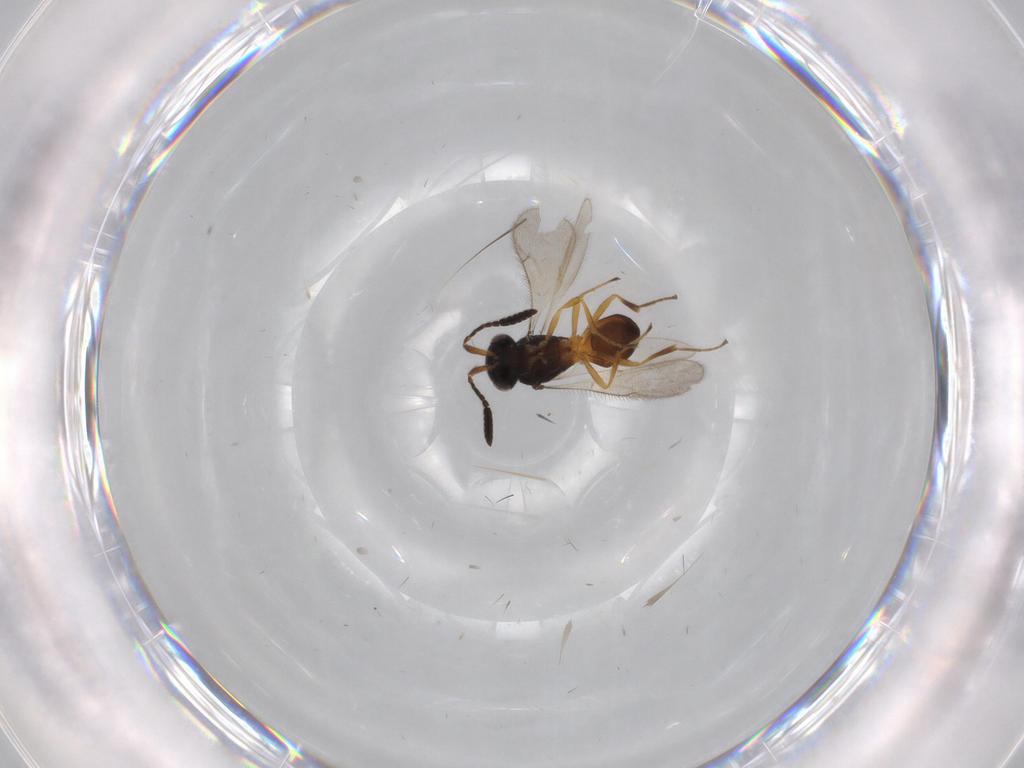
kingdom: Animalia
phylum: Arthropoda
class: Insecta
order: Hymenoptera
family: Scelionidae
